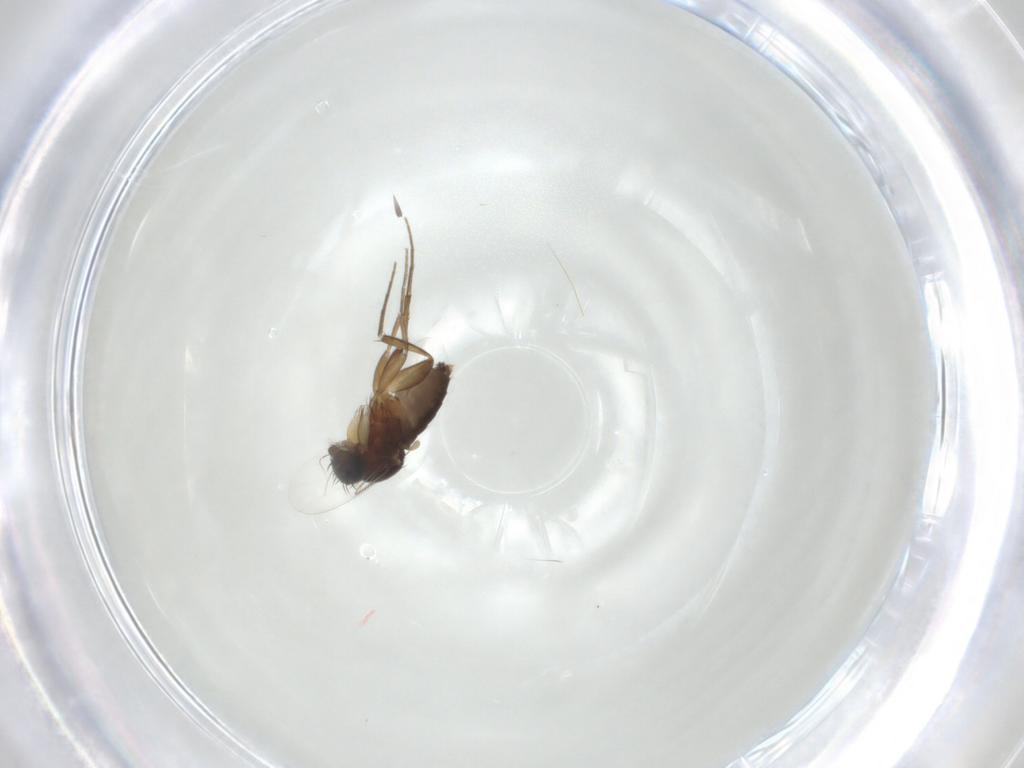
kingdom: Animalia
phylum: Arthropoda
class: Insecta
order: Diptera
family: Phoridae
